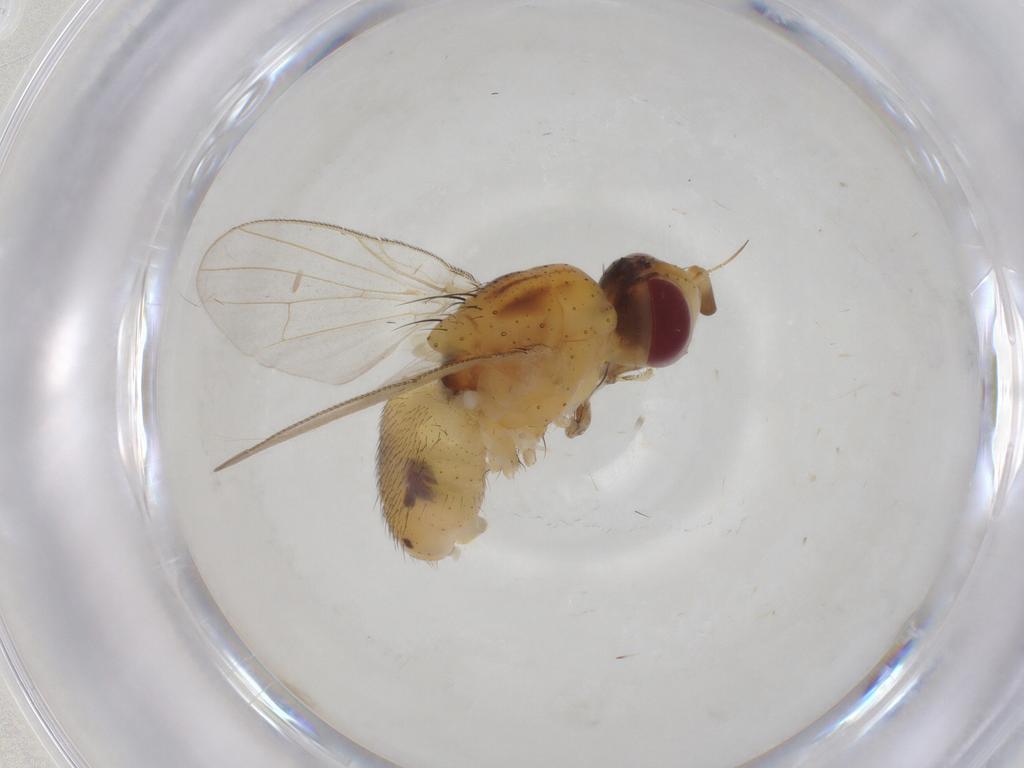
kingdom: Animalia
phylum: Arthropoda
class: Insecta
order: Diptera
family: Muscidae
